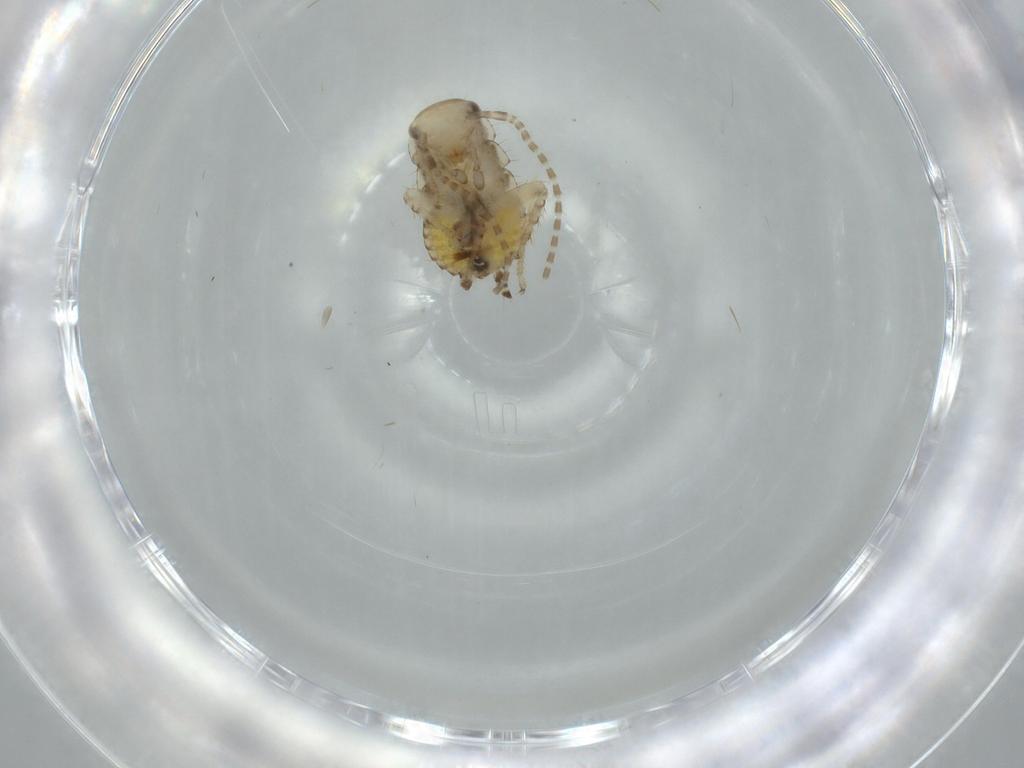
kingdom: Animalia
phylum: Arthropoda
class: Insecta
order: Blattodea
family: Ectobiidae
